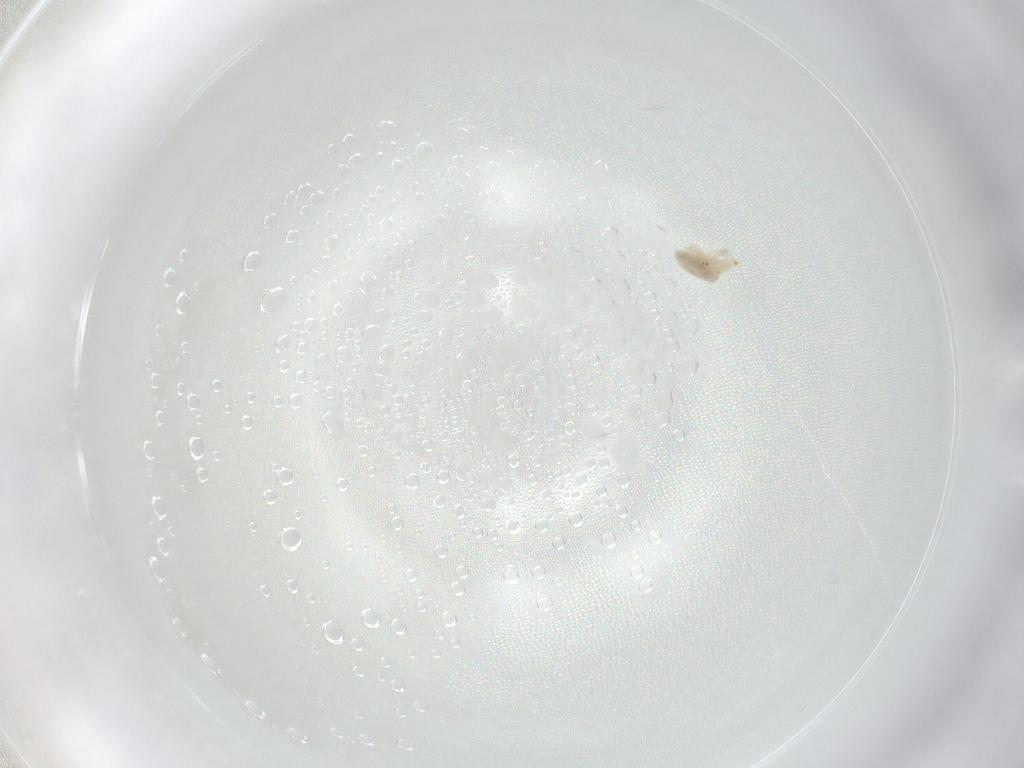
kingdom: Animalia
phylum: Arthropoda
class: Arachnida
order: Trombidiformes
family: Bdellidae
